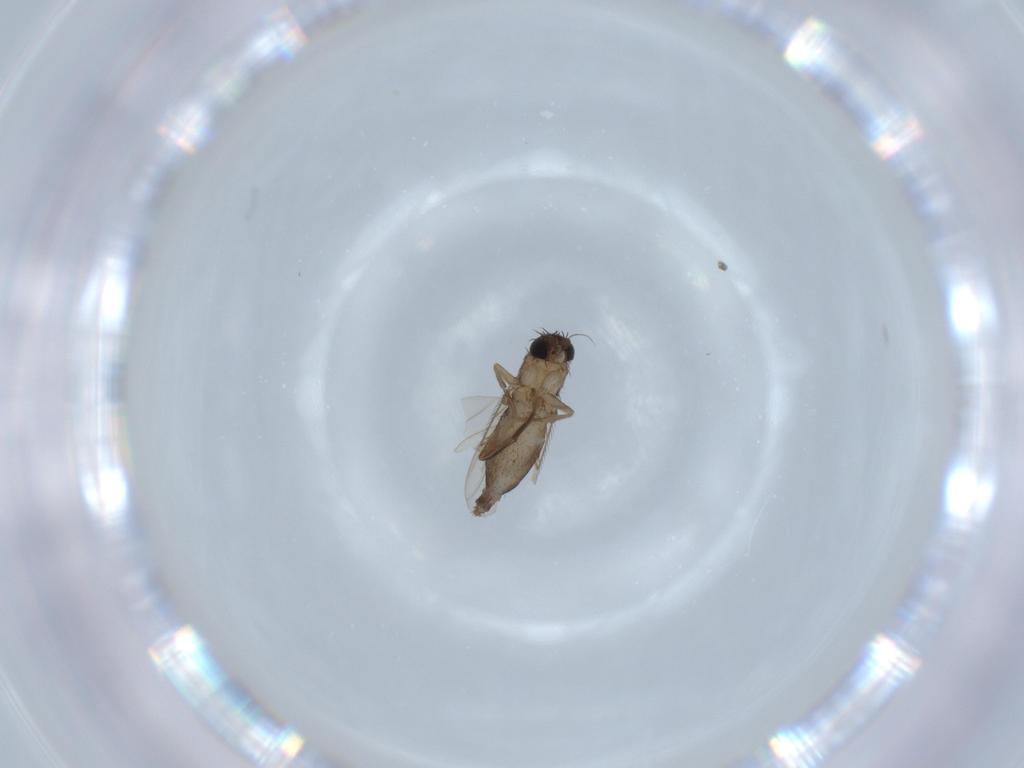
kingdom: Animalia
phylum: Arthropoda
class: Insecta
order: Diptera
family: Phoridae
